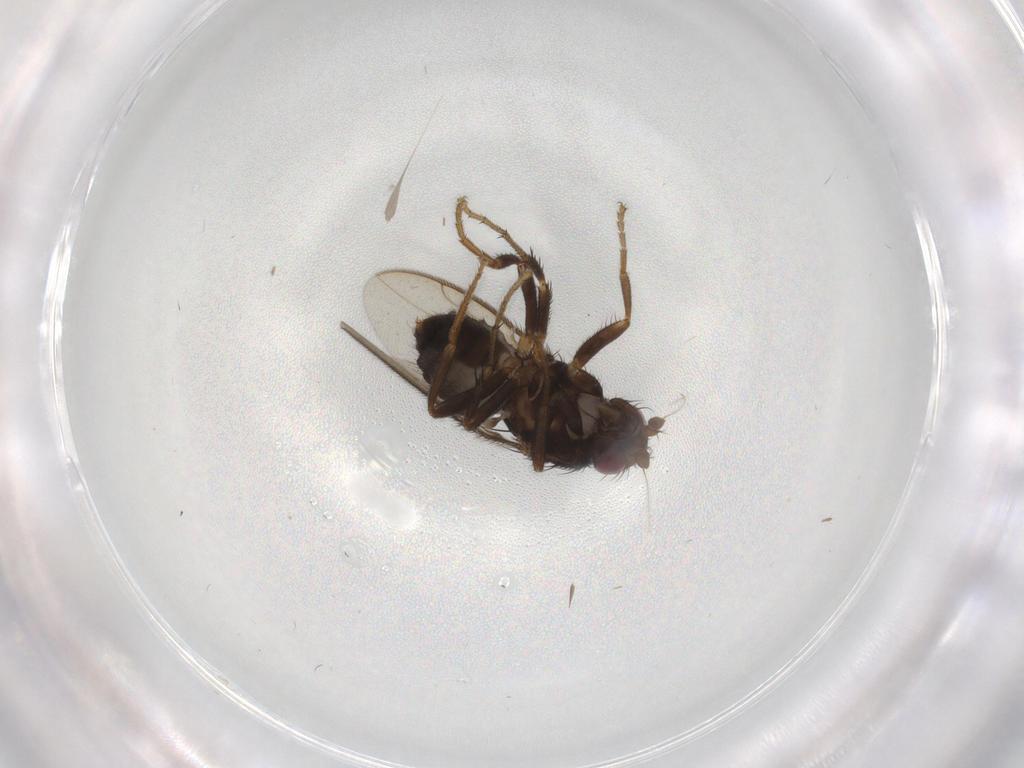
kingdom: Animalia
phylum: Arthropoda
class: Insecta
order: Diptera
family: Sphaeroceridae
